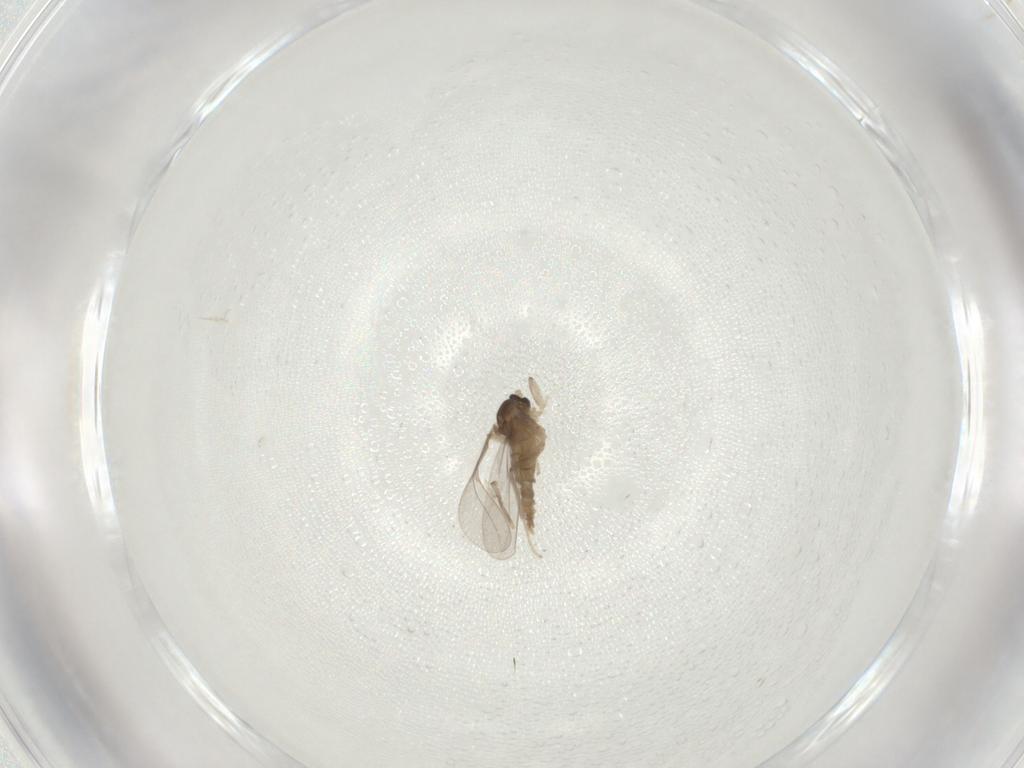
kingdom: Animalia
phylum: Arthropoda
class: Insecta
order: Diptera
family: Cecidomyiidae
